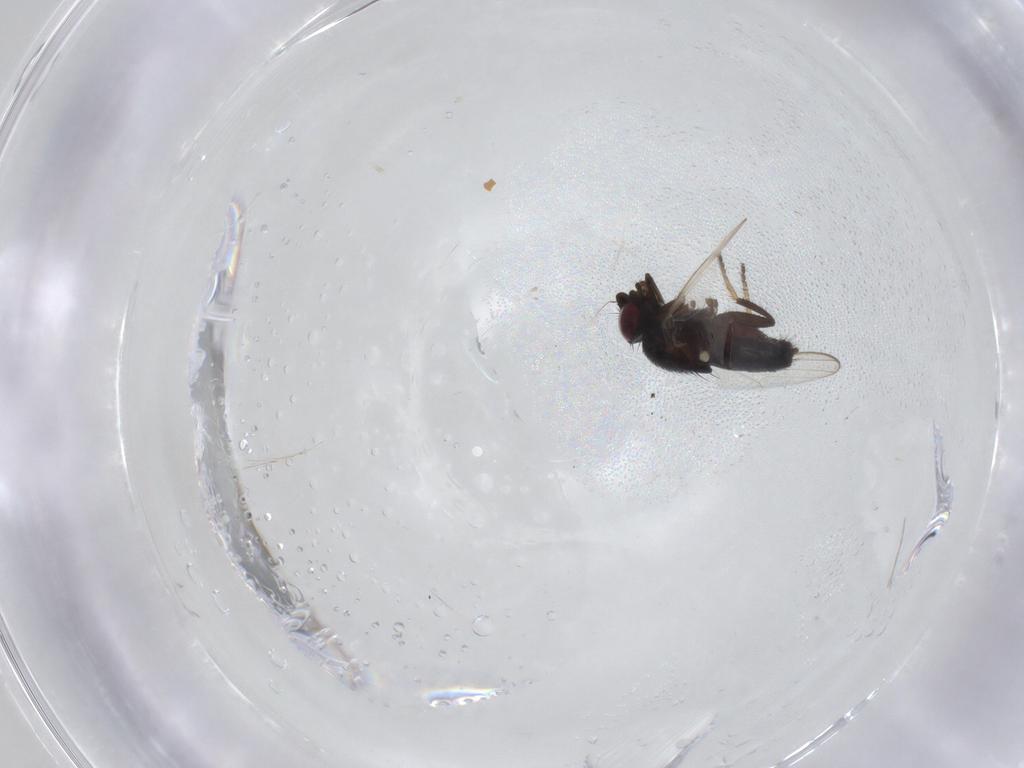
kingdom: Animalia
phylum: Arthropoda
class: Insecta
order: Diptera
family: Milichiidae
